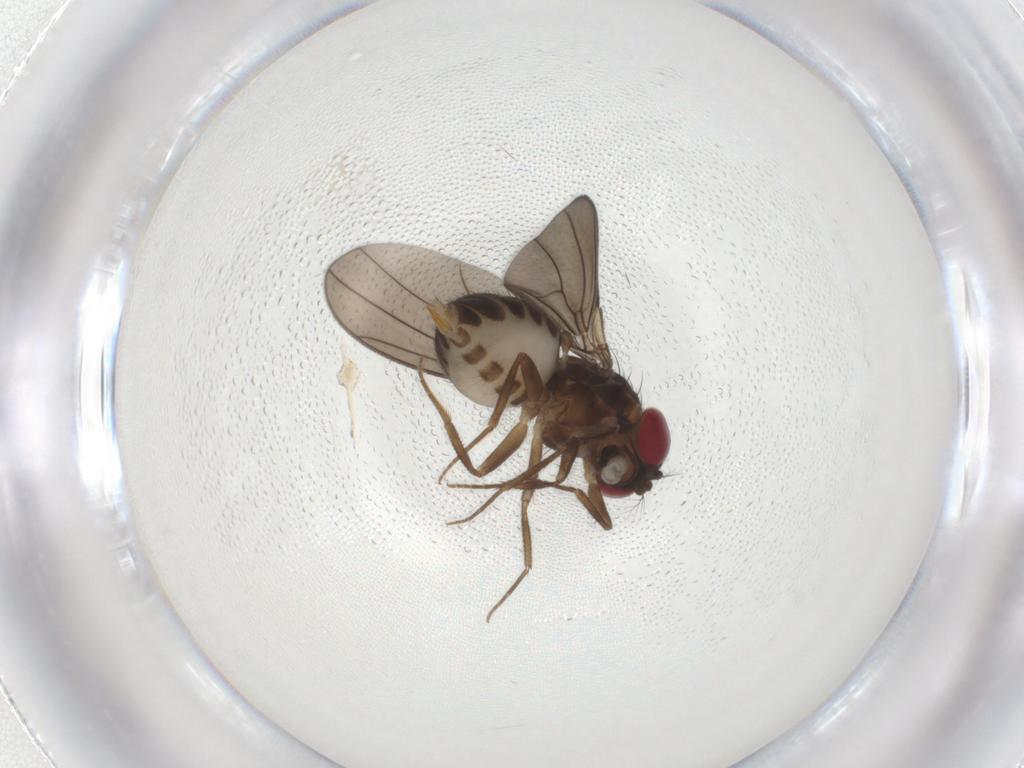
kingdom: Animalia
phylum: Arthropoda
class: Insecta
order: Diptera
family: Drosophilidae
